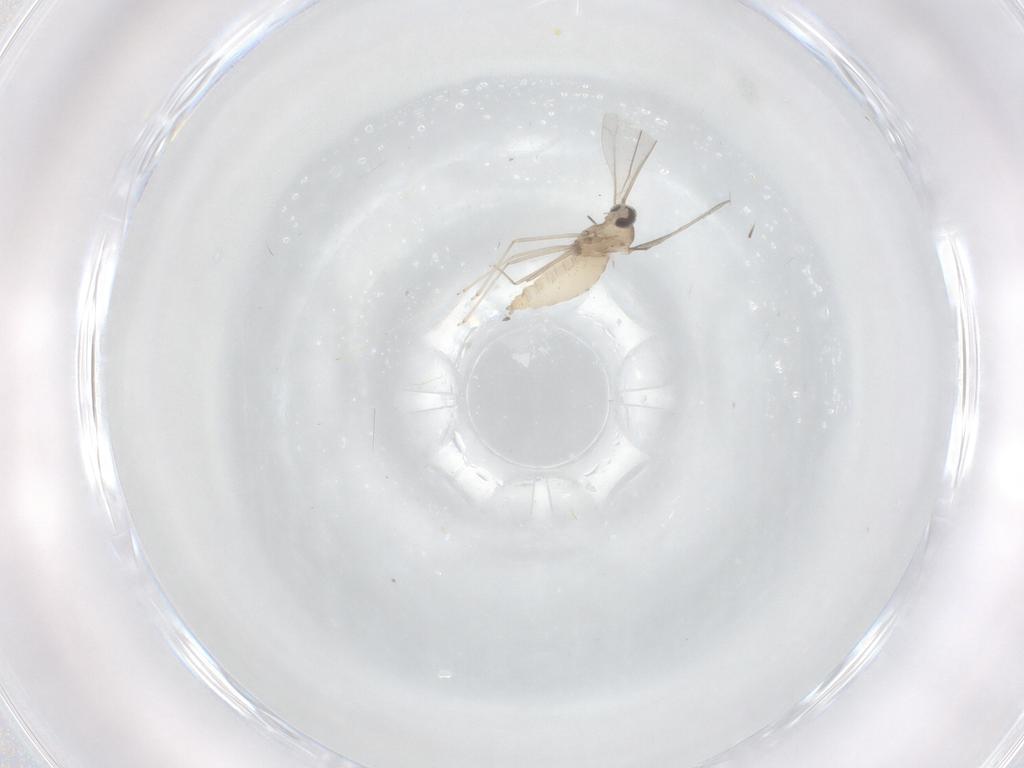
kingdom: Animalia
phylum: Arthropoda
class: Insecta
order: Diptera
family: Cecidomyiidae
